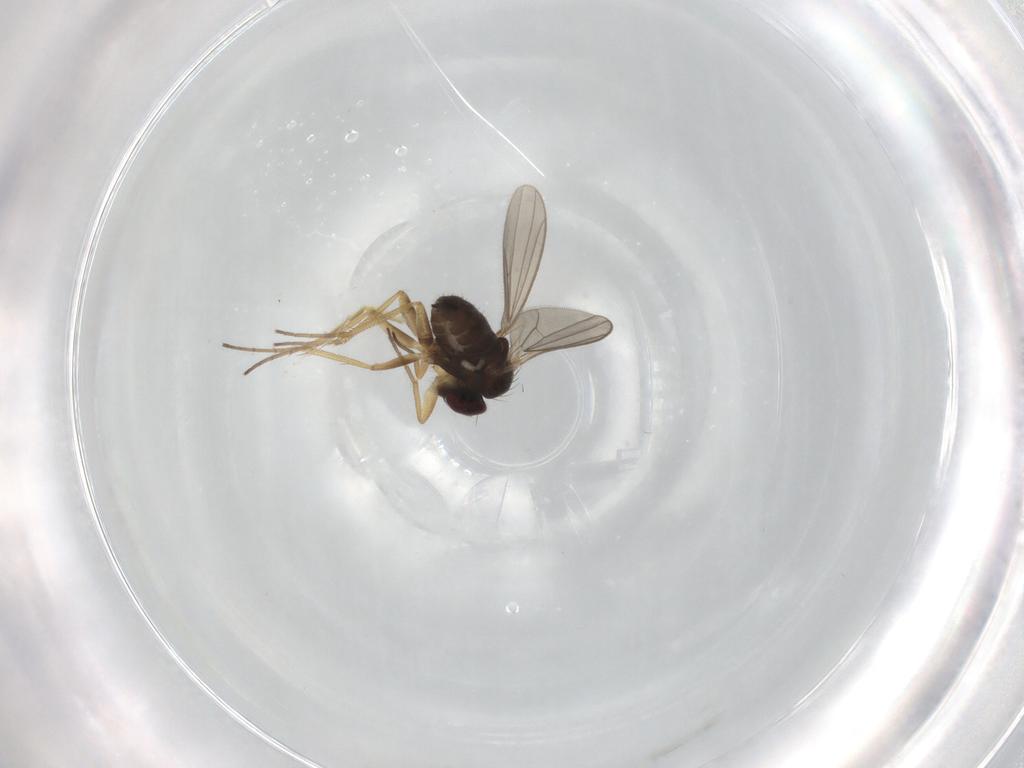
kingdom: Animalia
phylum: Arthropoda
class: Insecta
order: Diptera
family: Dolichopodidae
